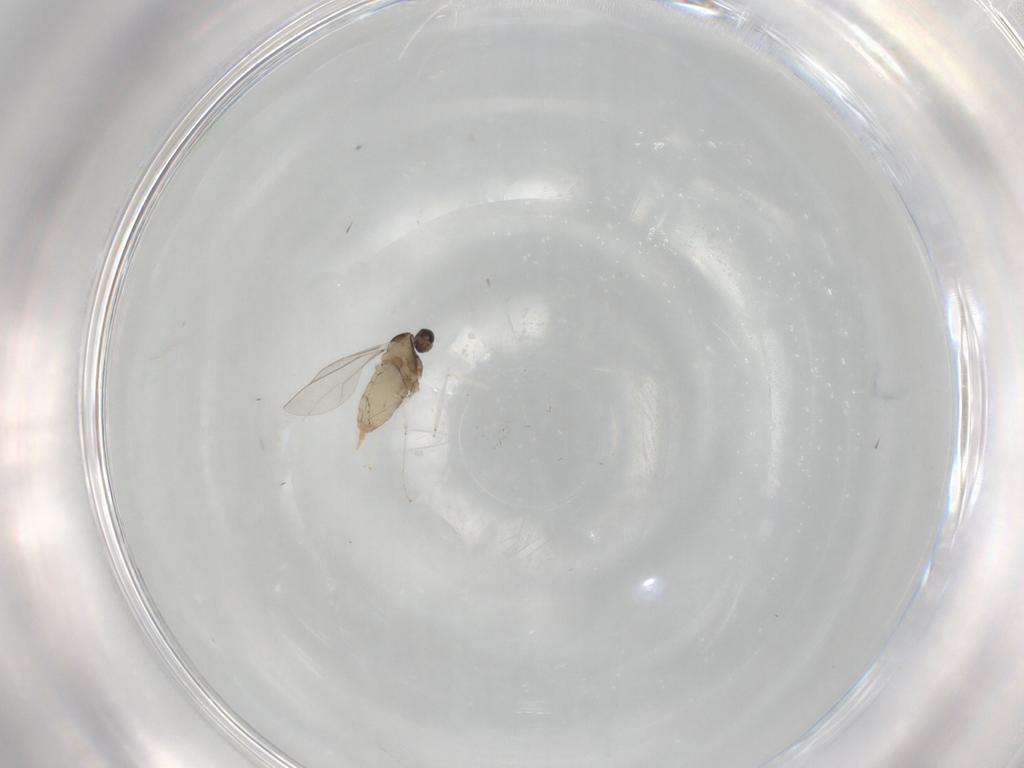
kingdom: Animalia
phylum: Arthropoda
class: Insecta
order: Diptera
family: Cecidomyiidae
